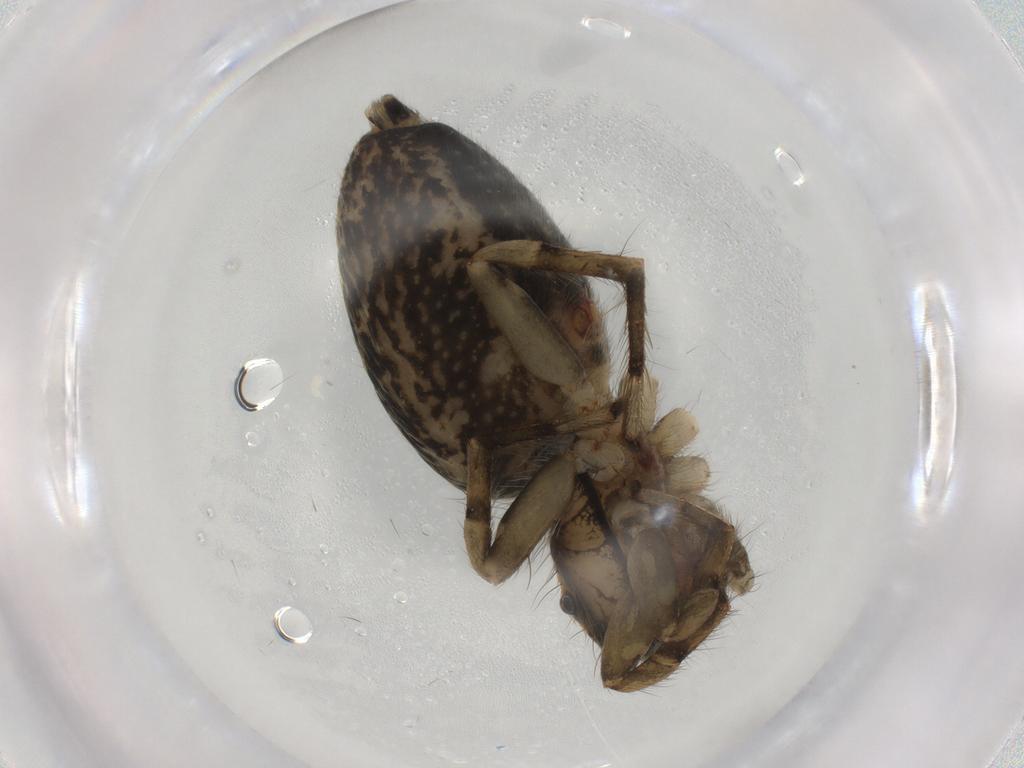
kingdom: Animalia
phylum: Arthropoda
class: Arachnida
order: Araneae
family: Salticidae
